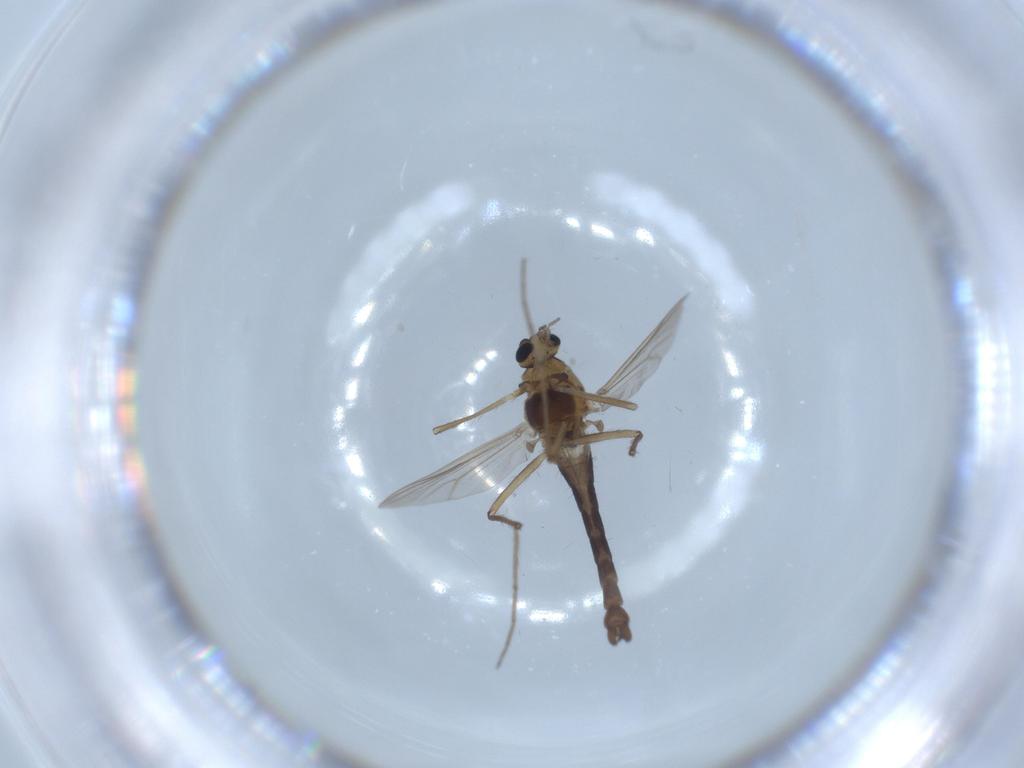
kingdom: Animalia
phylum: Arthropoda
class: Insecta
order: Diptera
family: Chironomidae
